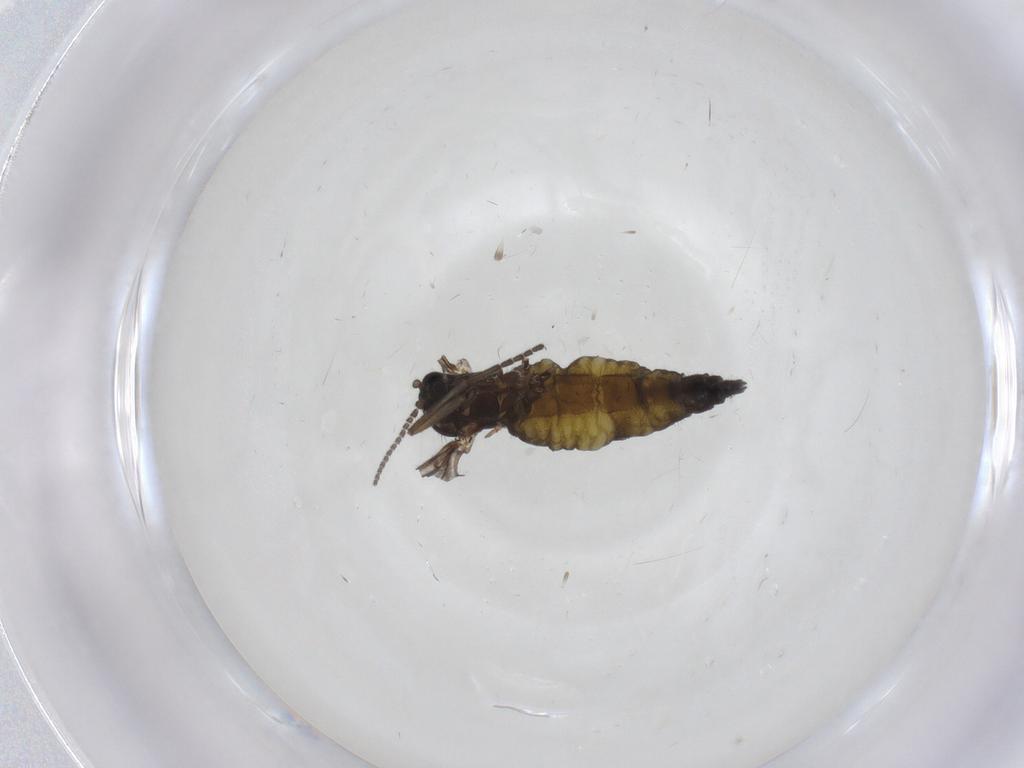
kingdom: Animalia
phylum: Arthropoda
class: Insecta
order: Diptera
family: Sciaridae
